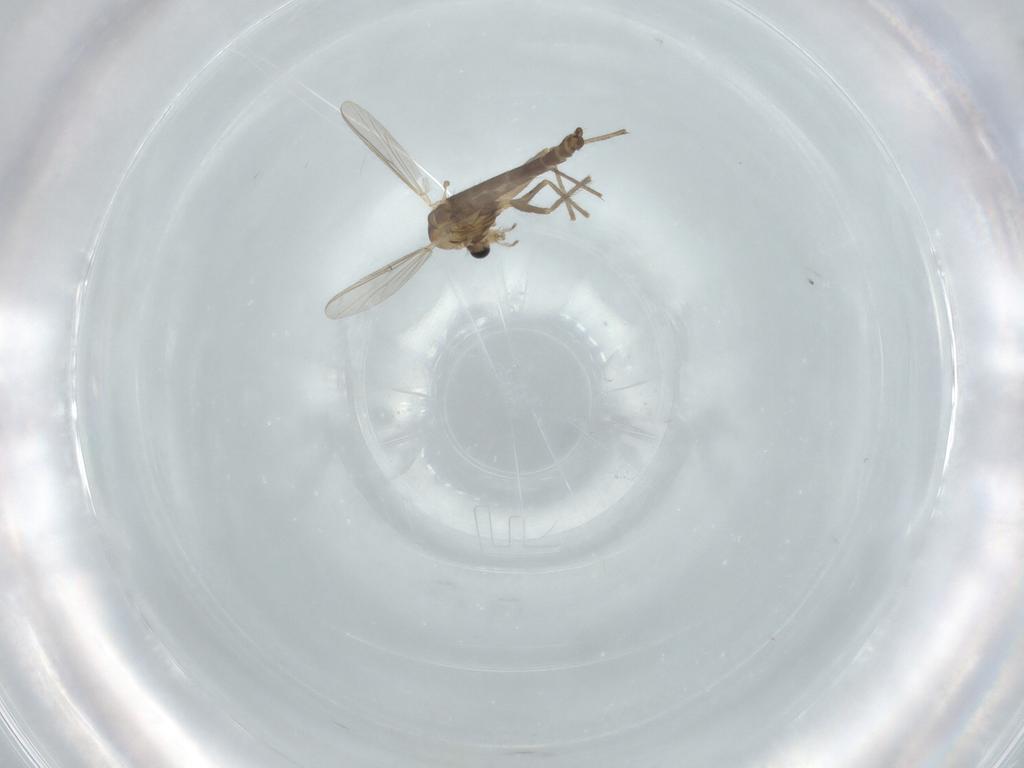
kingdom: Animalia
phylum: Arthropoda
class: Insecta
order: Diptera
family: Chironomidae
